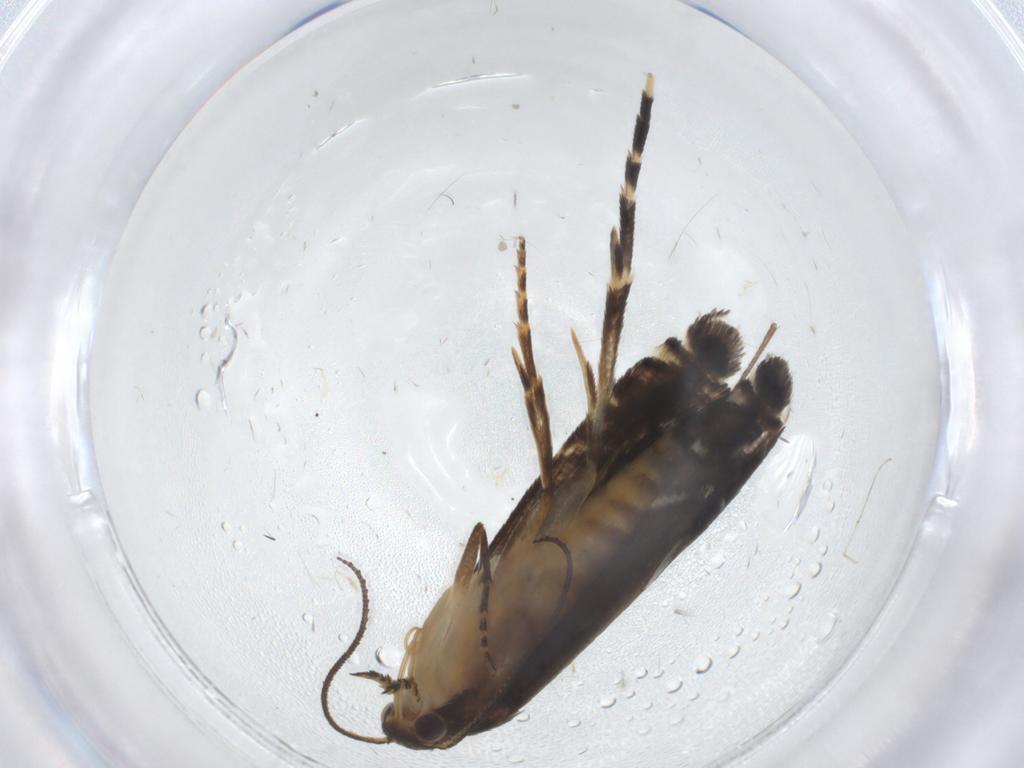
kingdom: Animalia
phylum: Arthropoda
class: Insecta
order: Lepidoptera
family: Glyphipterigidae
